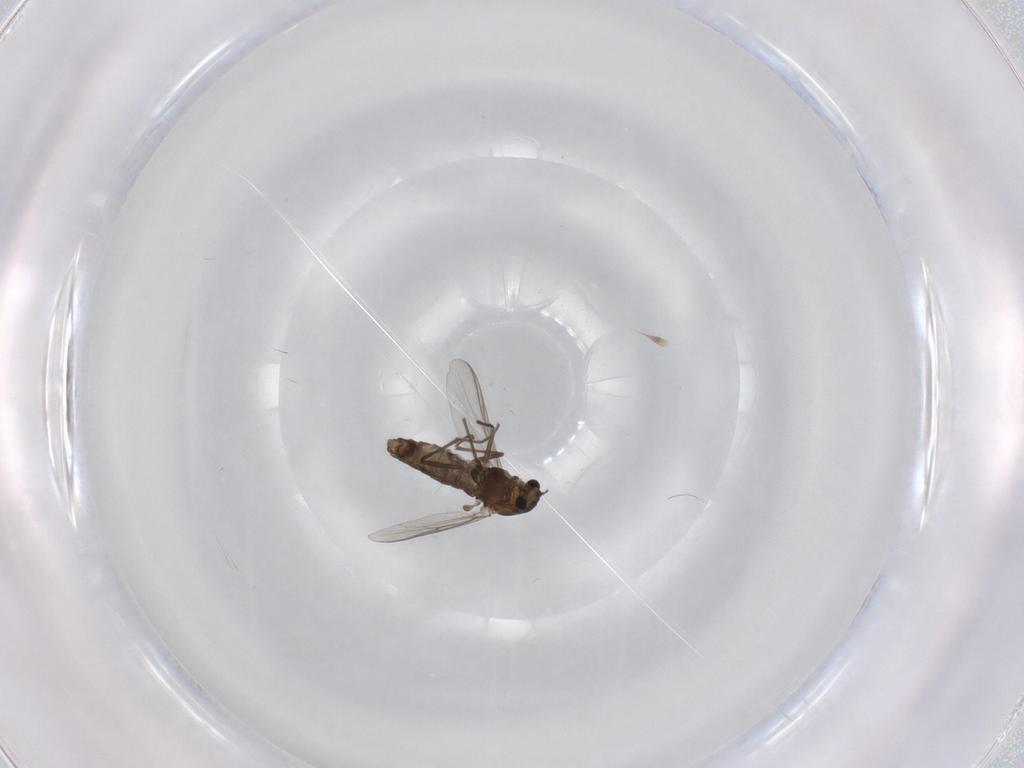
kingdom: Animalia
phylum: Arthropoda
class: Insecta
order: Diptera
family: Chironomidae
